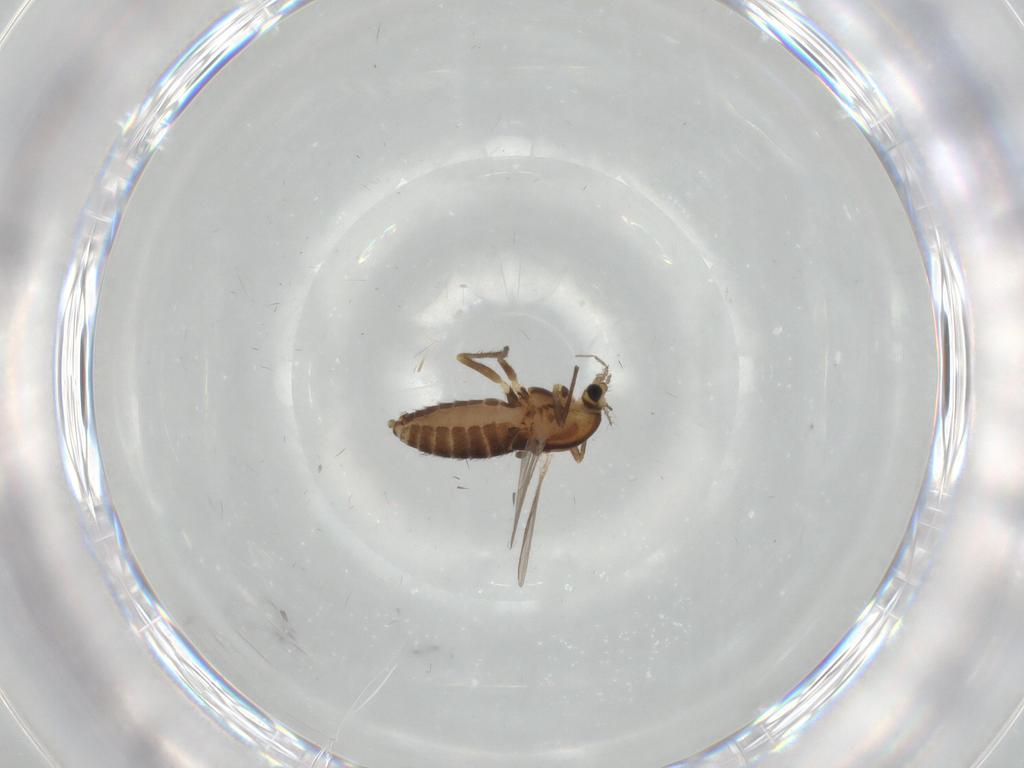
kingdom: Animalia
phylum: Arthropoda
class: Insecta
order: Diptera
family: Chironomidae
